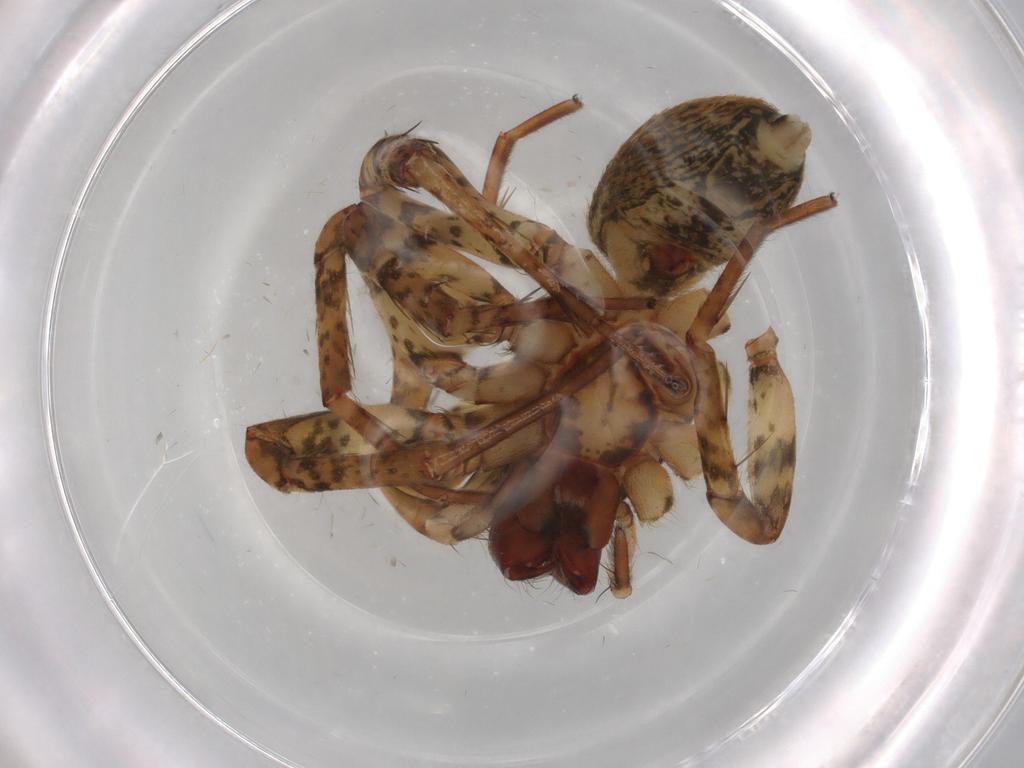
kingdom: Animalia
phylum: Arthropoda
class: Arachnida
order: Araneae
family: Anyphaenidae
